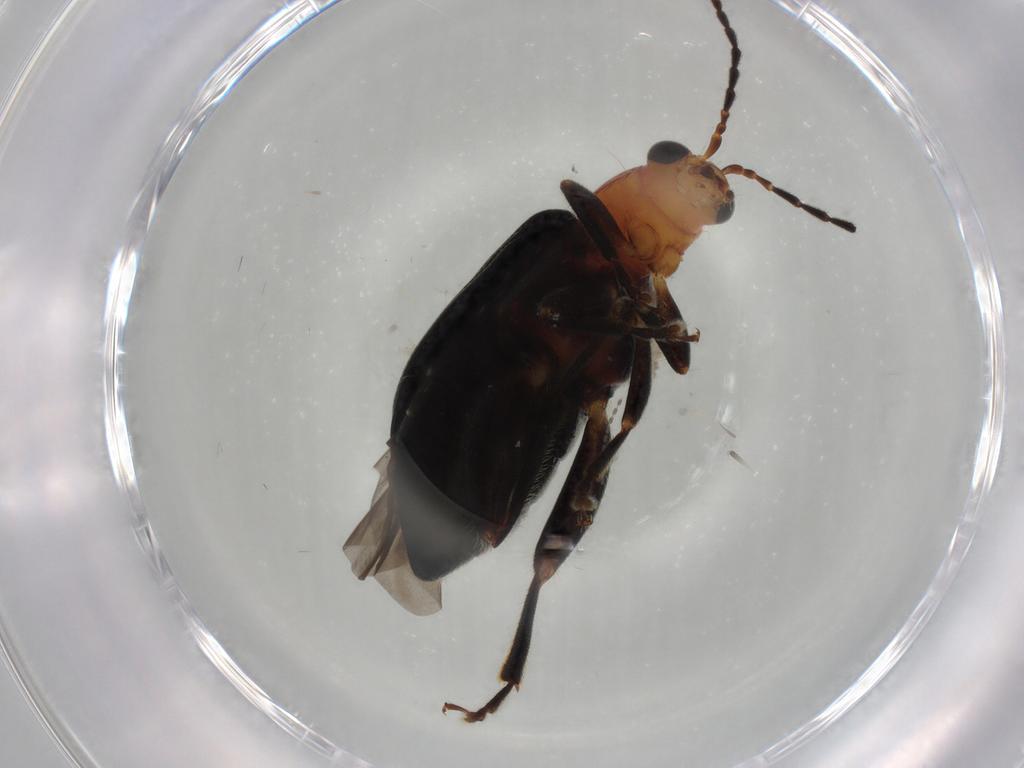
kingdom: Animalia
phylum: Arthropoda
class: Insecta
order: Coleoptera
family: Chrysomelidae
